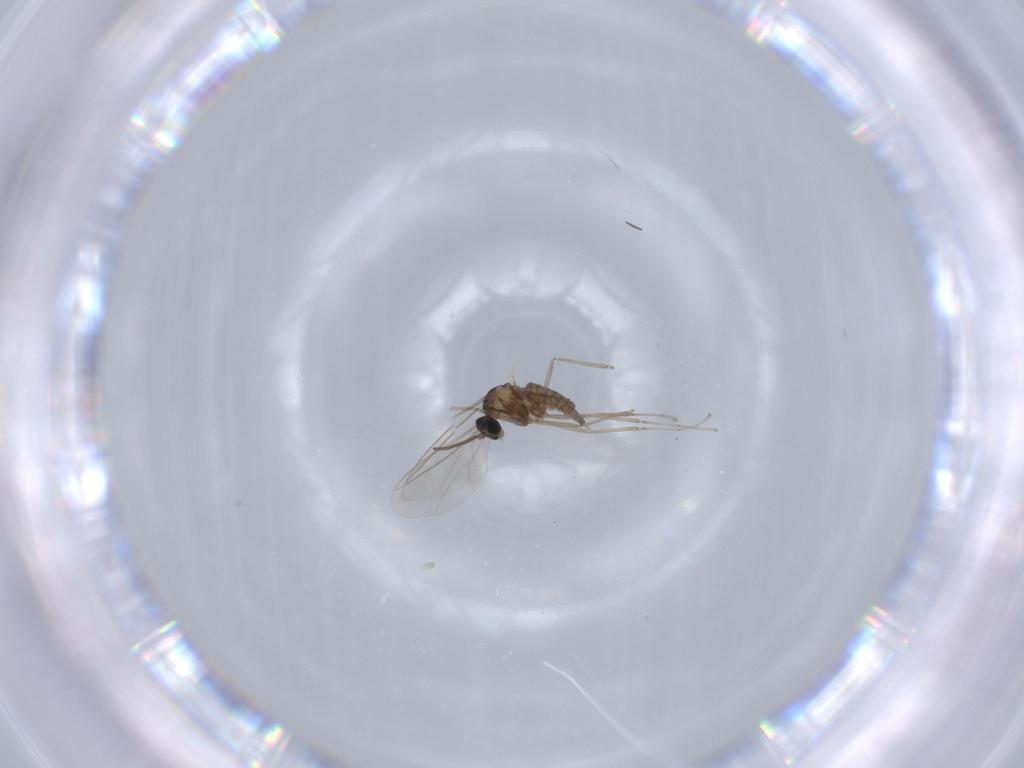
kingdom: Animalia
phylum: Arthropoda
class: Insecta
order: Diptera
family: Cecidomyiidae
